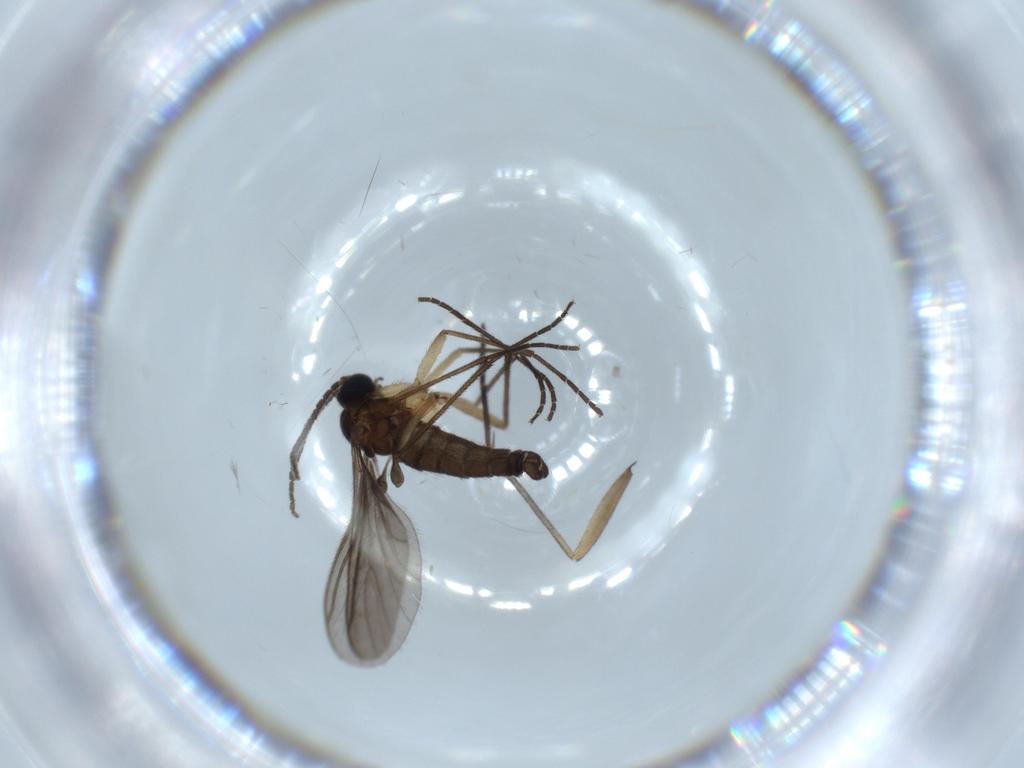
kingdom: Animalia
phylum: Arthropoda
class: Insecta
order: Diptera
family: Sciaridae
